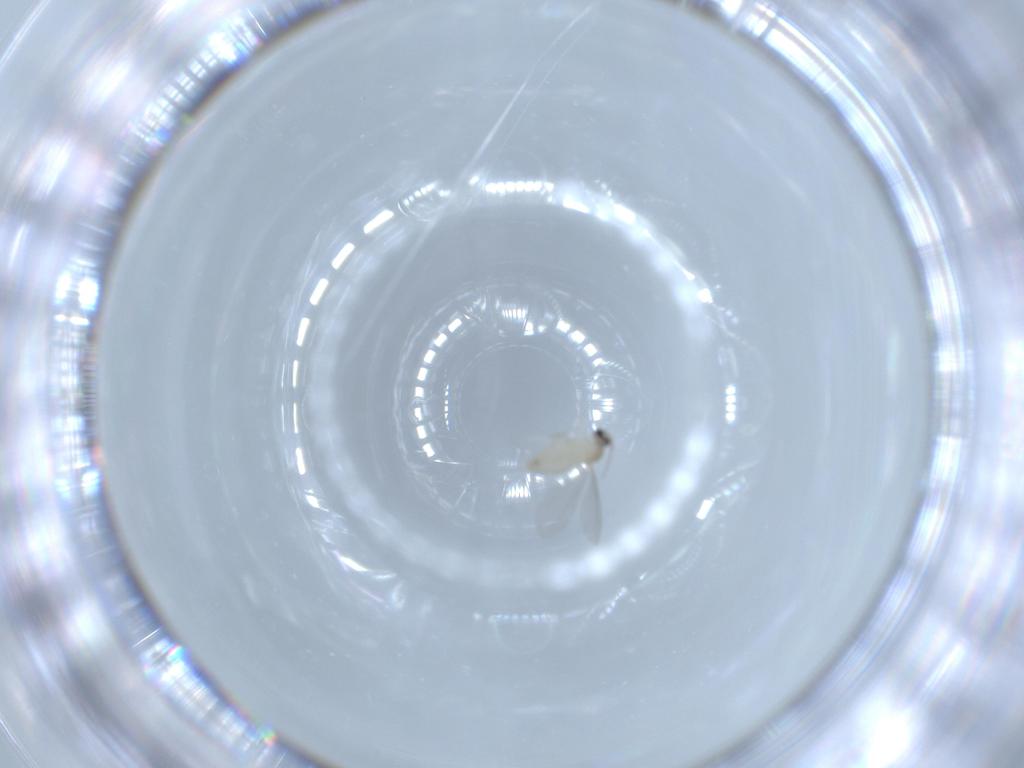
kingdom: Animalia
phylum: Arthropoda
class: Insecta
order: Diptera
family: Cecidomyiidae
